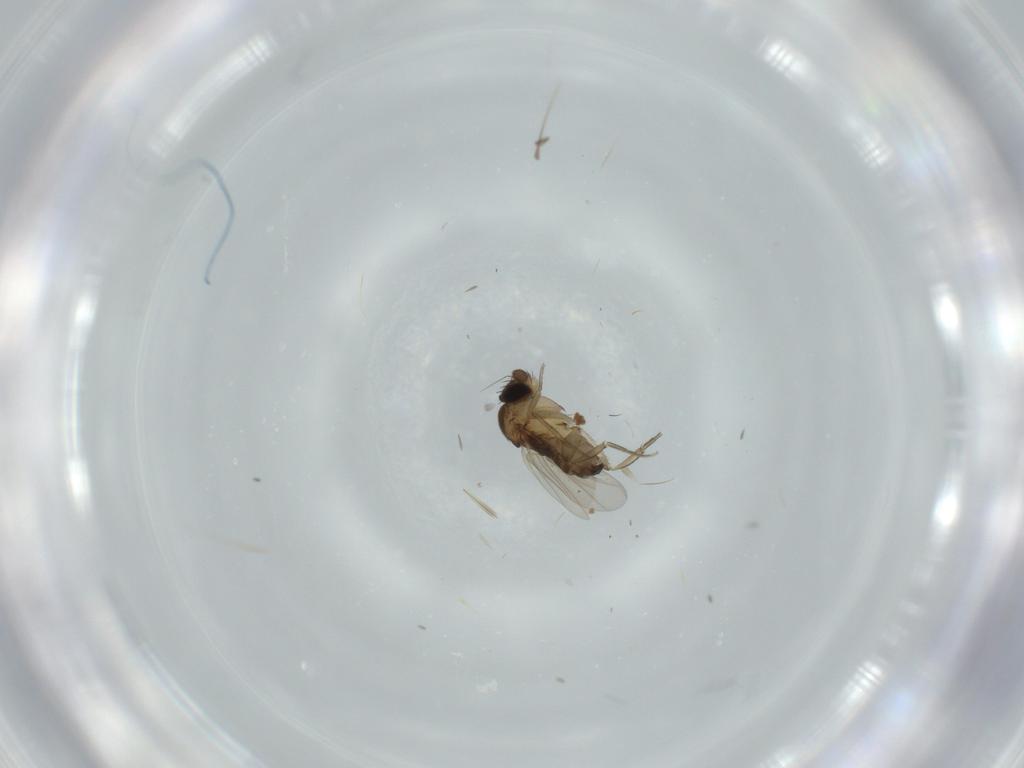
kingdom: Animalia
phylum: Arthropoda
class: Insecta
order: Diptera
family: Phoridae
